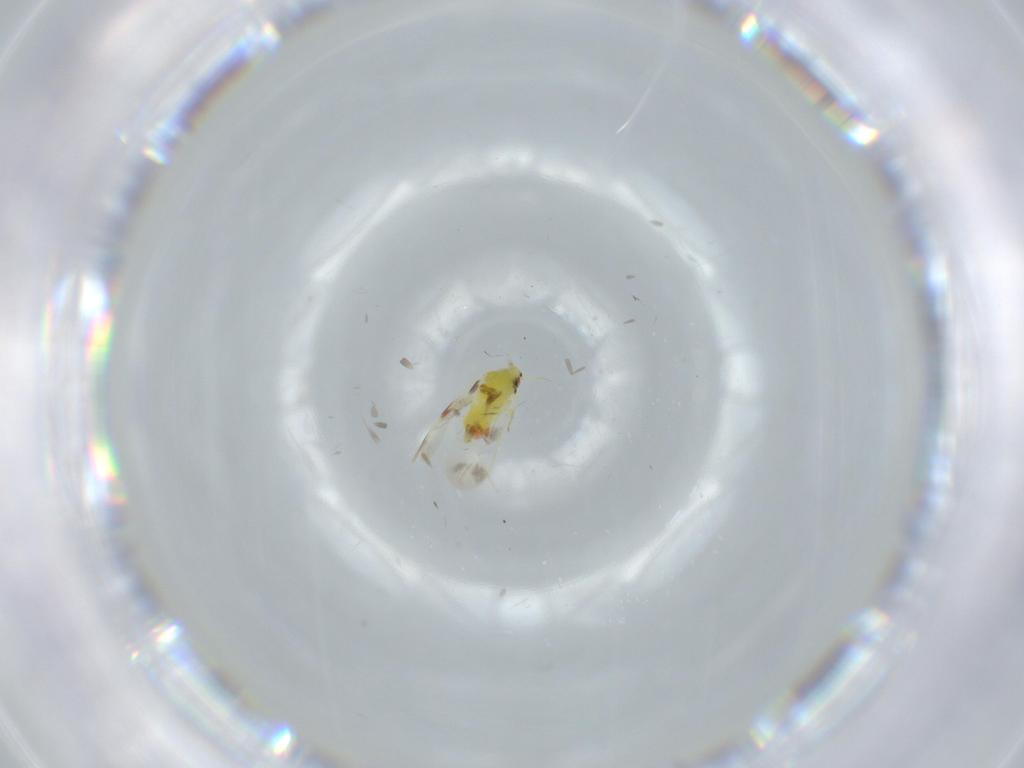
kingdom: Animalia
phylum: Arthropoda
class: Insecta
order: Hemiptera
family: Aleyrodidae
